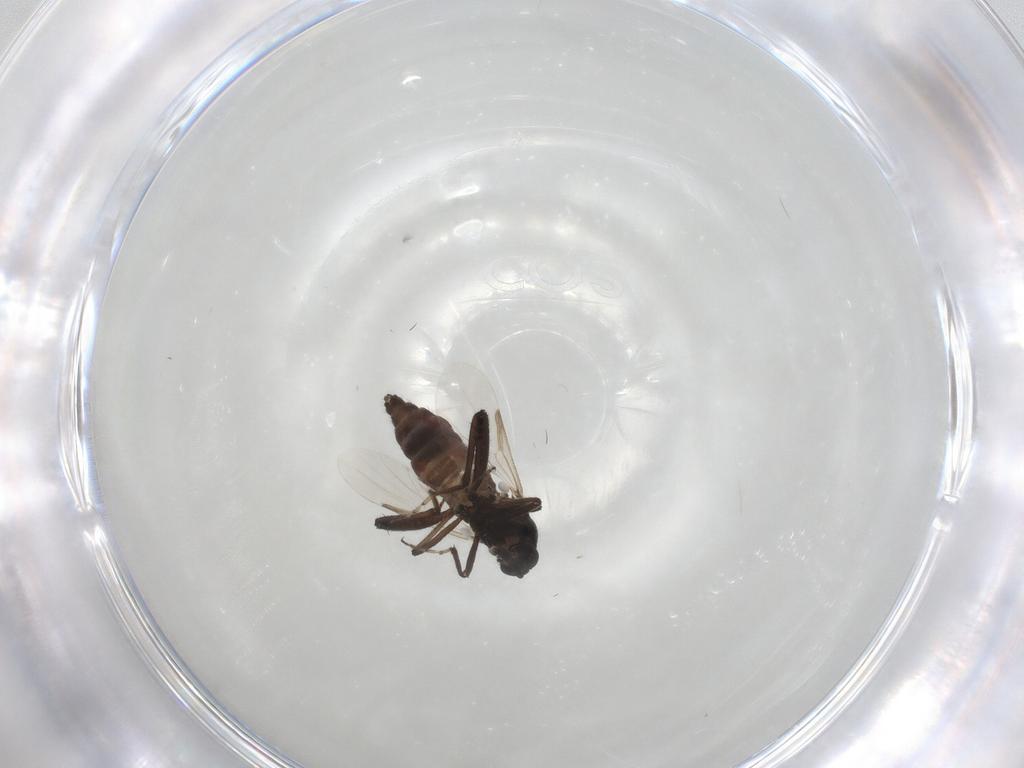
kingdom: Animalia
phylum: Arthropoda
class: Insecta
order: Diptera
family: Ceratopogonidae
